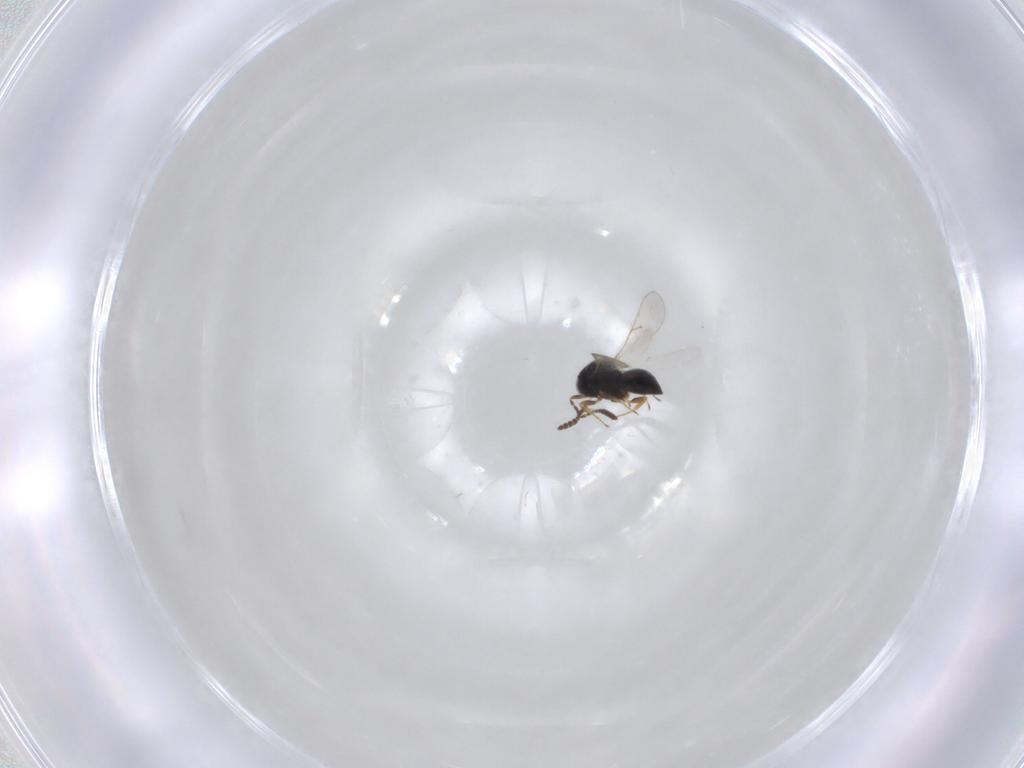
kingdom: Animalia
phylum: Arthropoda
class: Insecta
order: Hymenoptera
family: Scelionidae
